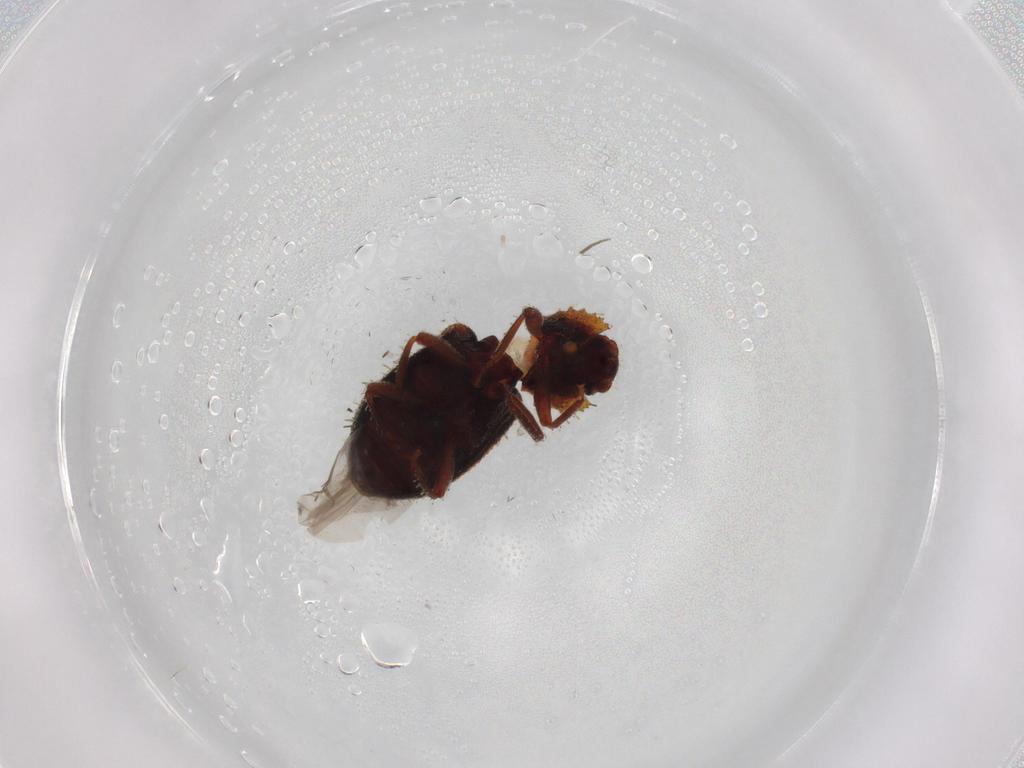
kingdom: Animalia
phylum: Arthropoda
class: Insecta
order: Coleoptera
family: Zopheridae
